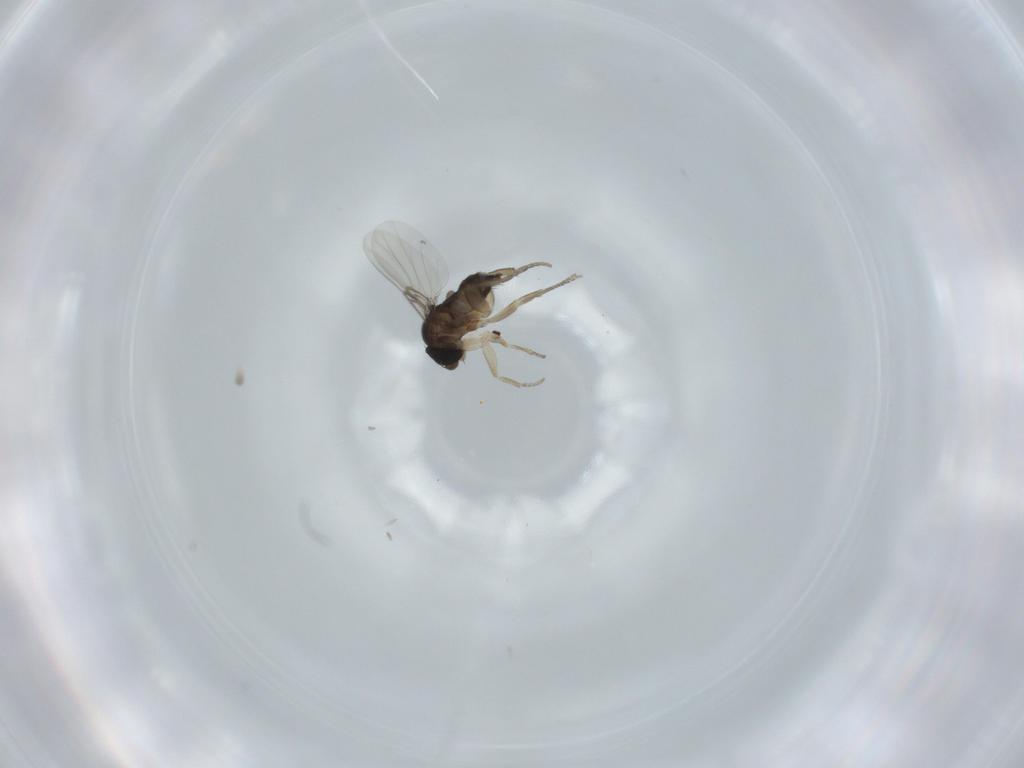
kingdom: Animalia
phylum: Arthropoda
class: Insecta
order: Diptera
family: Phoridae
